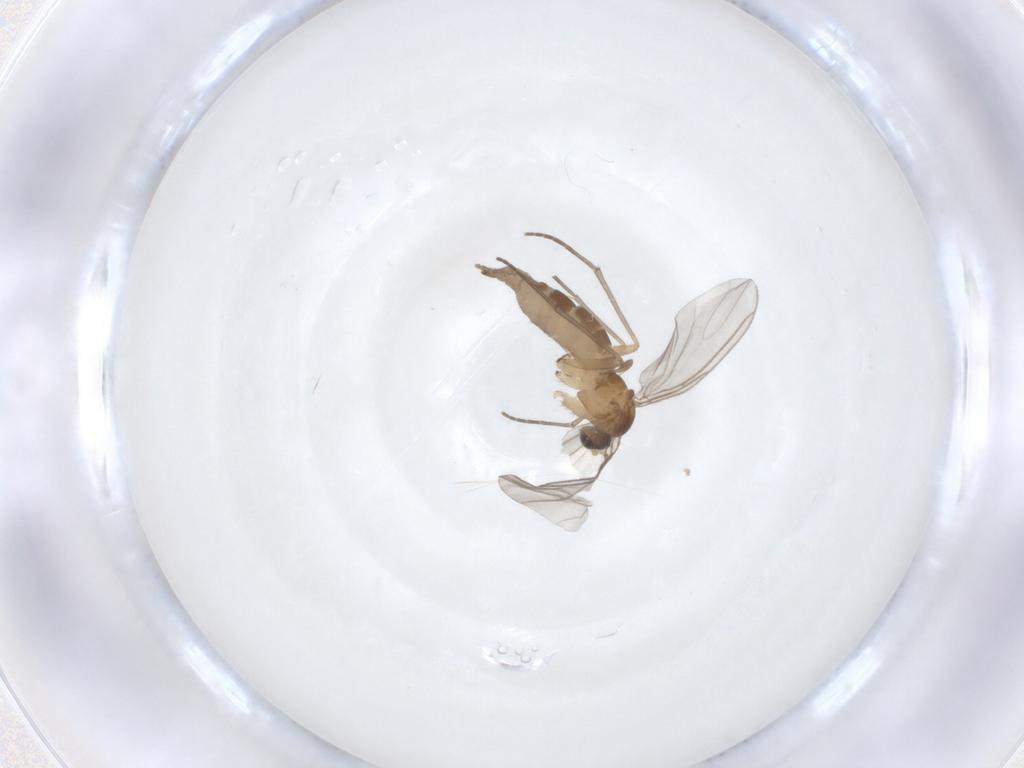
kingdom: Animalia
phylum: Arthropoda
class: Insecta
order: Diptera
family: Sciaridae
